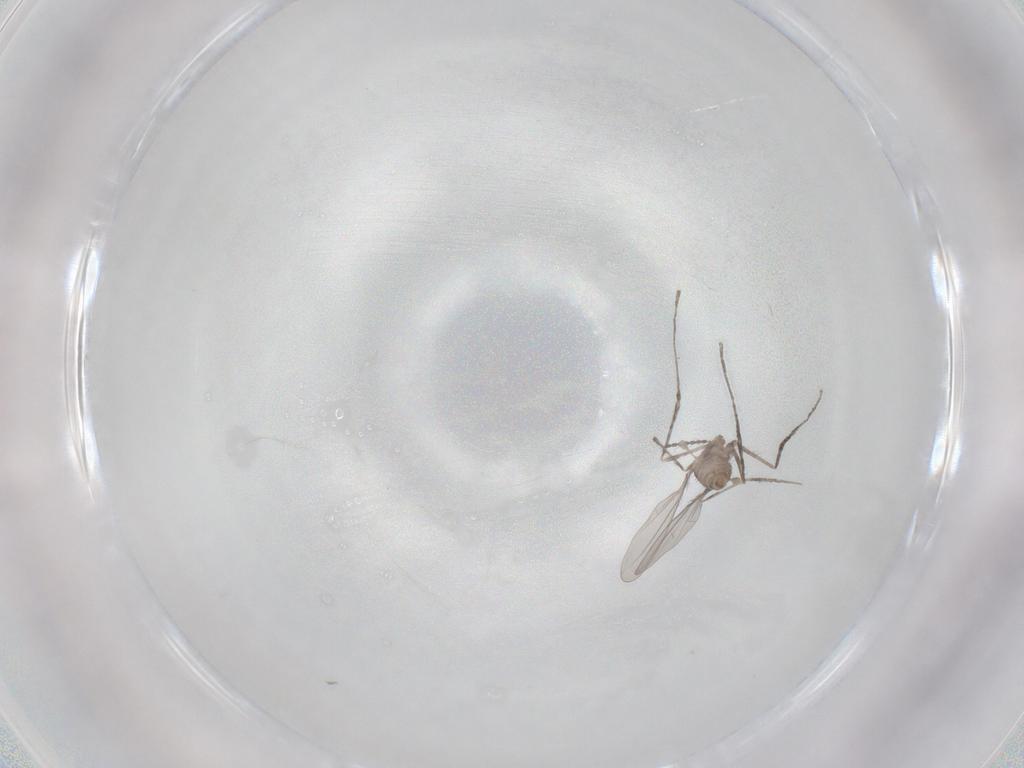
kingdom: Animalia
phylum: Arthropoda
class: Insecta
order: Diptera
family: Cecidomyiidae
